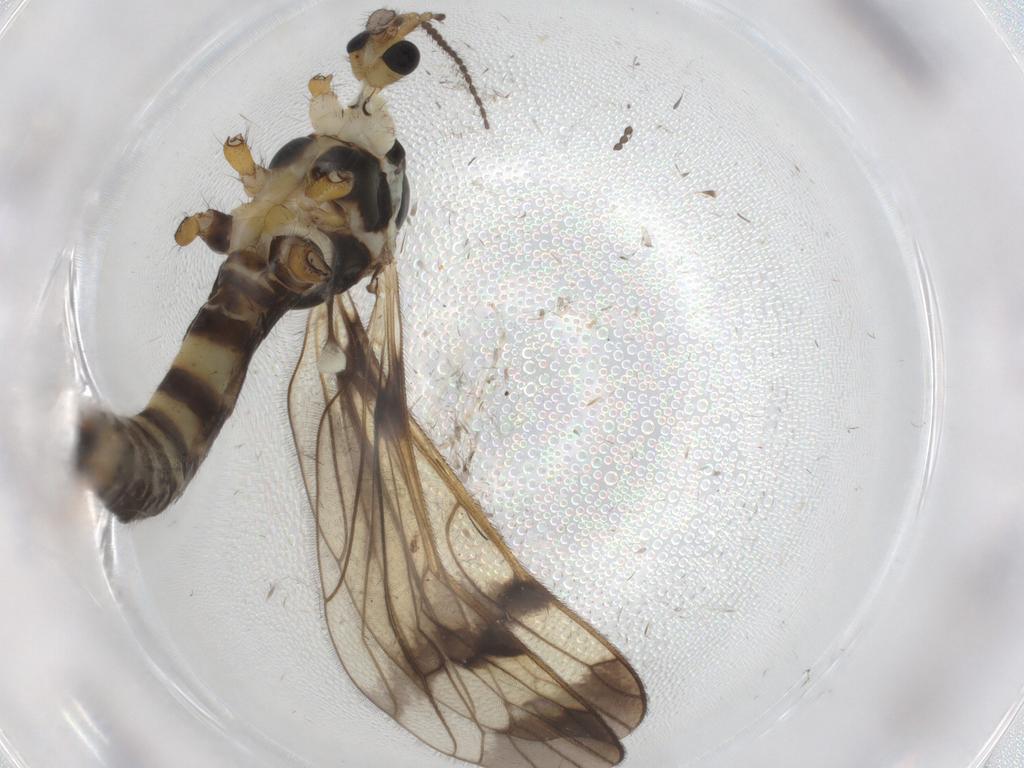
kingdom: Animalia
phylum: Arthropoda
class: Insecta
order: Diptera
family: Limoniidae
